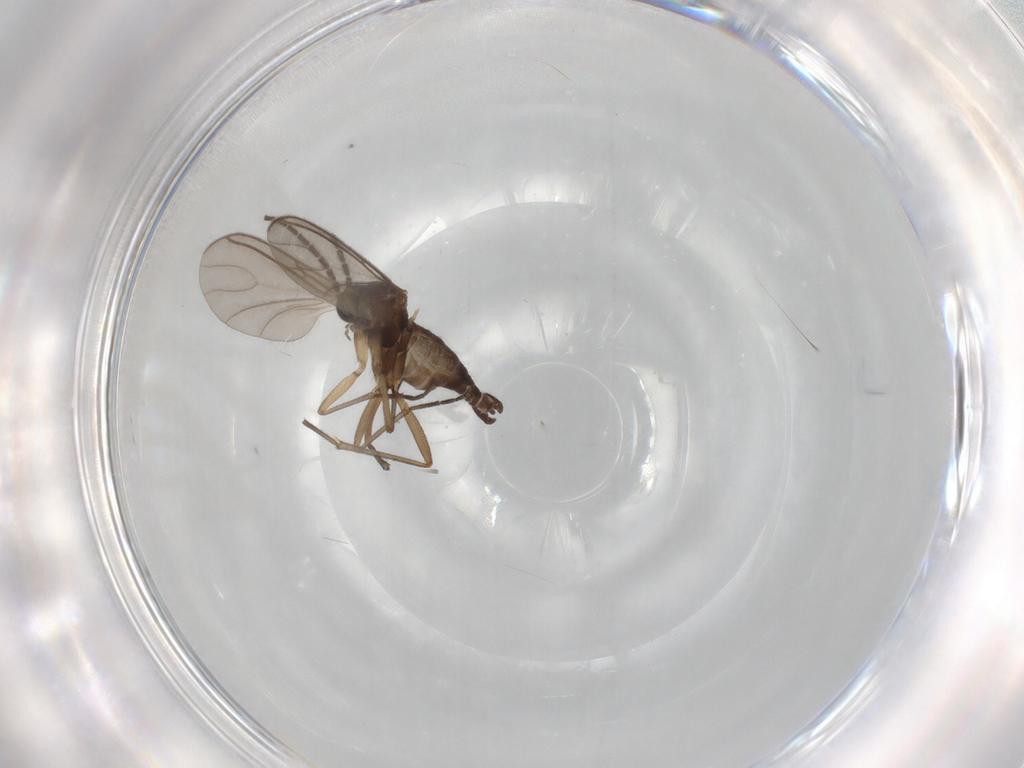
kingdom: Animalia
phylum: Arthropoda
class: Insecta
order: Diptera
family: Sciaridae
